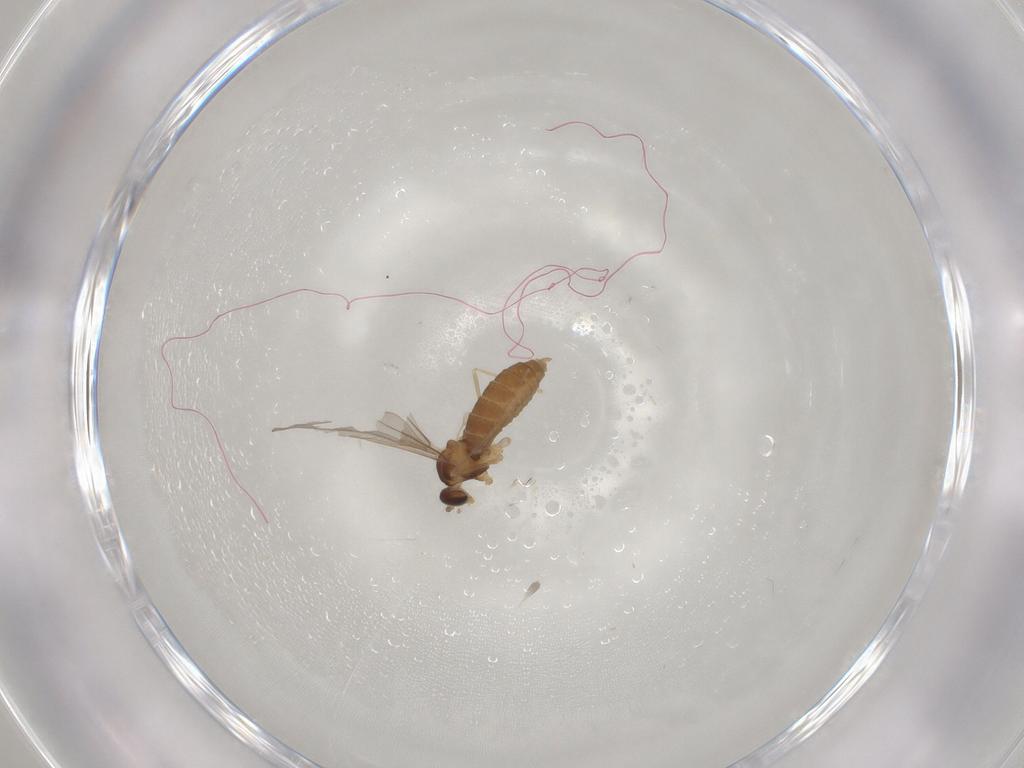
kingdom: Animalia
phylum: Arthropoda
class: Insecta
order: Diptera
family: Cecidomyiidae
